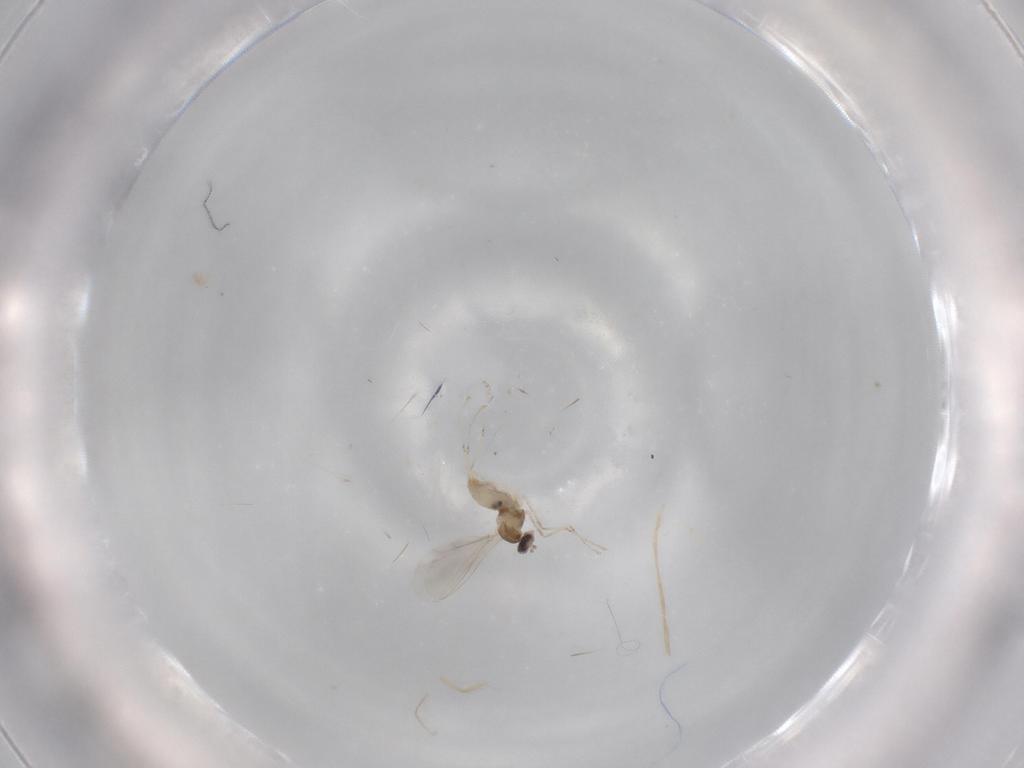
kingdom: Animalia
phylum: Arthropoda
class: Insecta
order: Diptera
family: Cecidomyiidae
